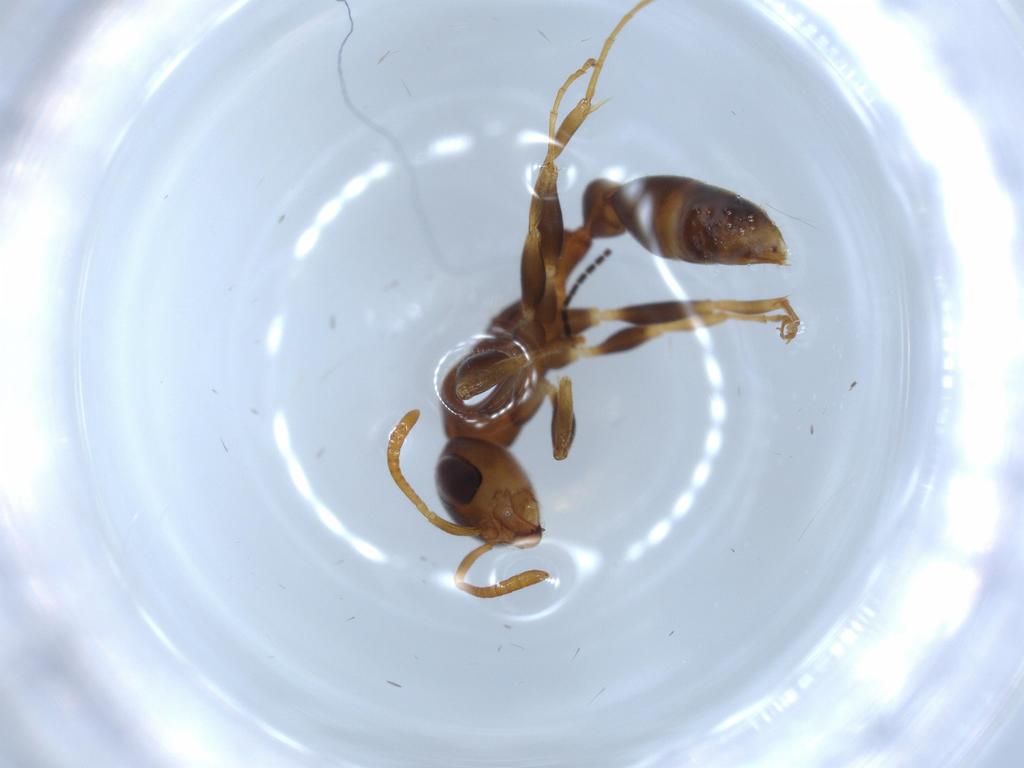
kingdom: Animalia
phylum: Arthropoda
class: Insecta
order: Hymenoptera
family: Formicidae
